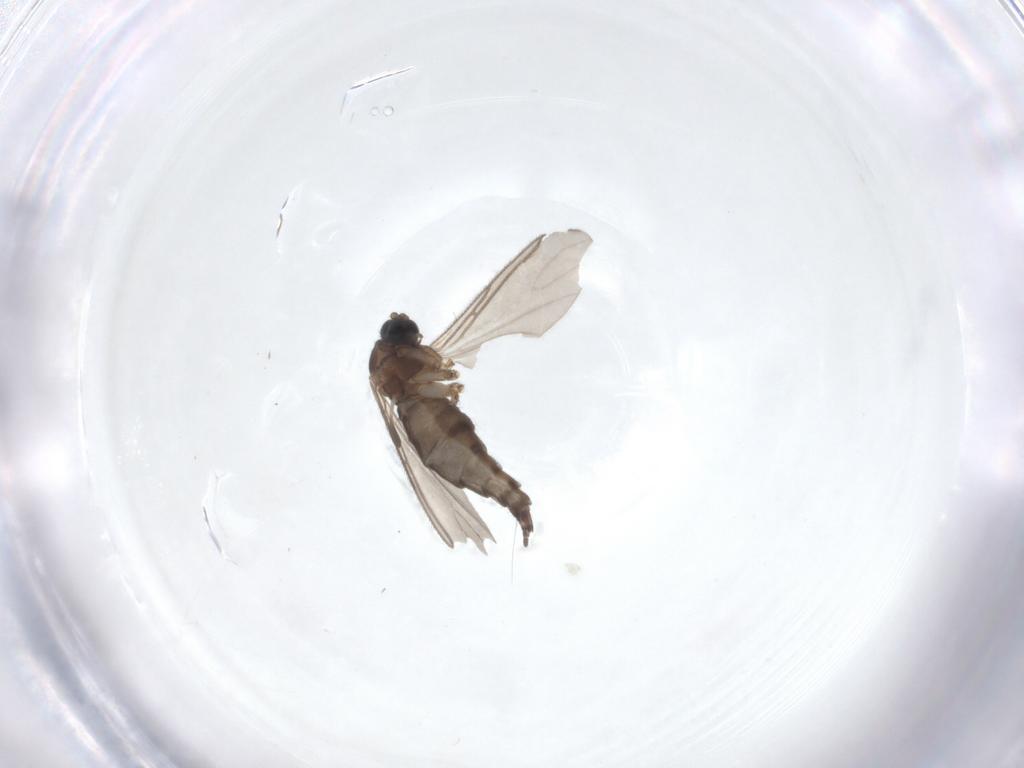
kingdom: Animalia
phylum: Arthropoda
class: Insecta
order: Diptera
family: Sciaridae
